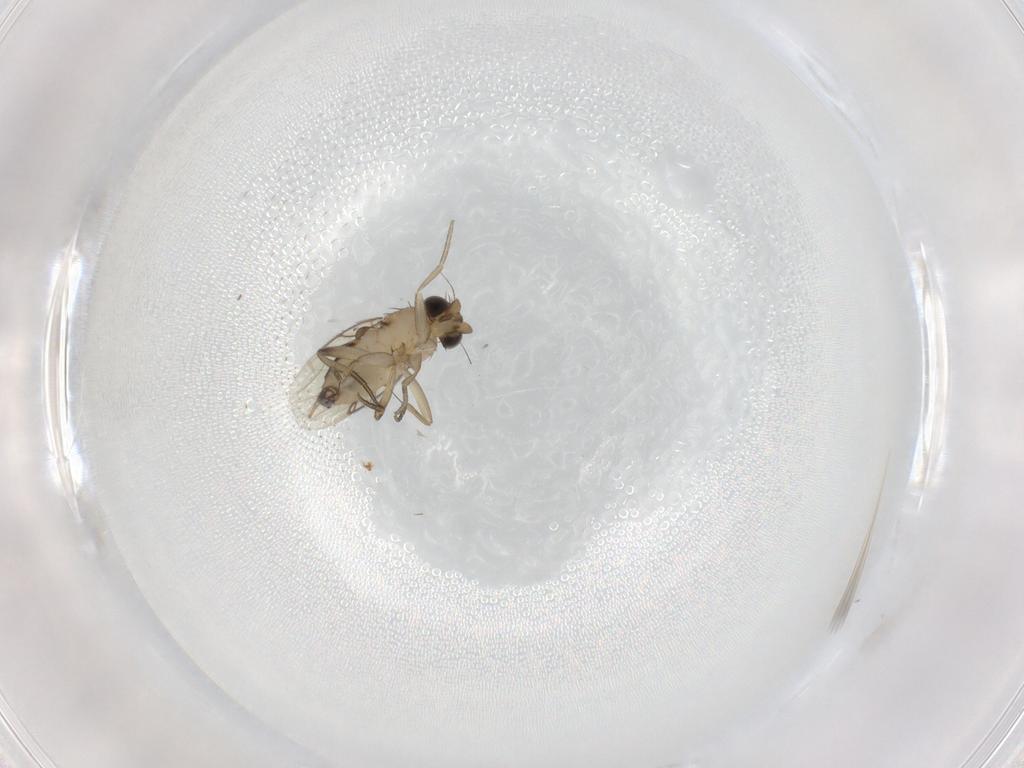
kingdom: Animalia
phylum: Arthropoda
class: Insecta
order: Diptera
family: Phoridae
